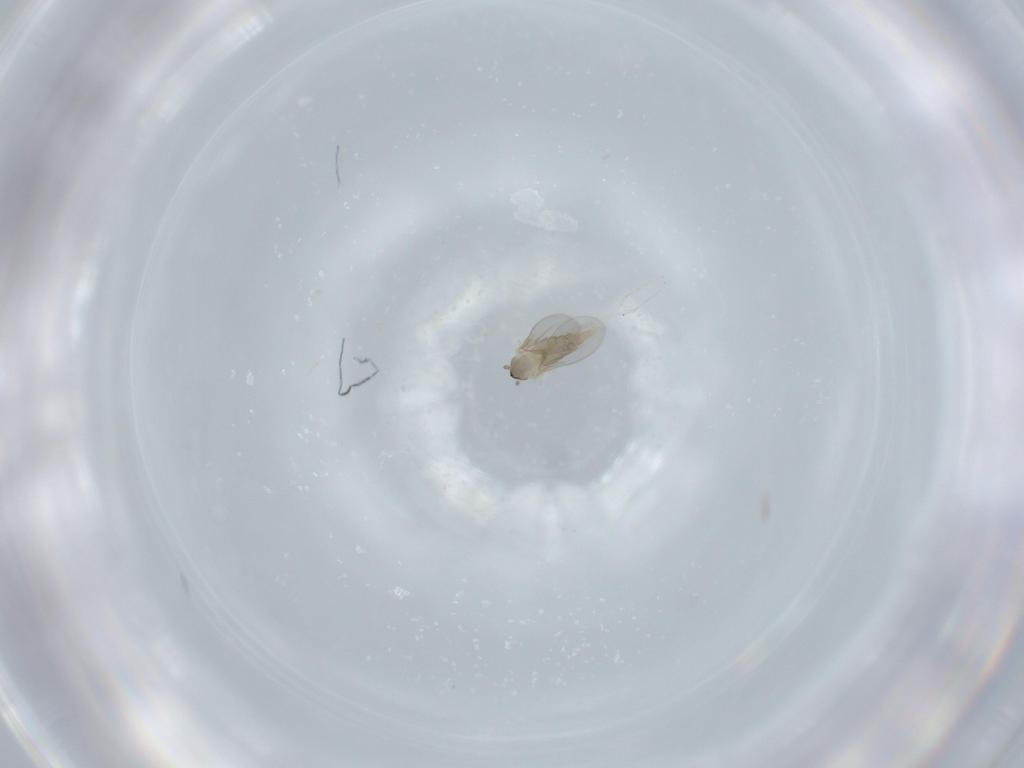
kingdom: Animalia
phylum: Arthropoda
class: Insecta
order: Diptera
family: Cecidomyiidae
